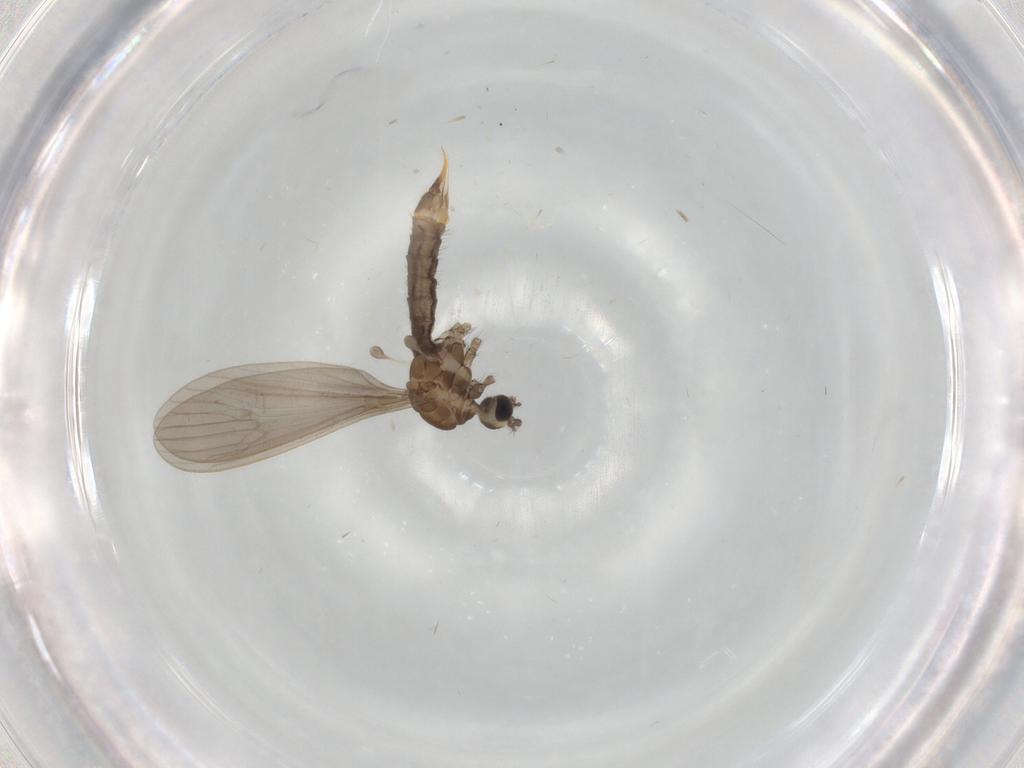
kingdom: Animalia
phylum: Arthropoda
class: Insecta
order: Diptera
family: Limoniidae
